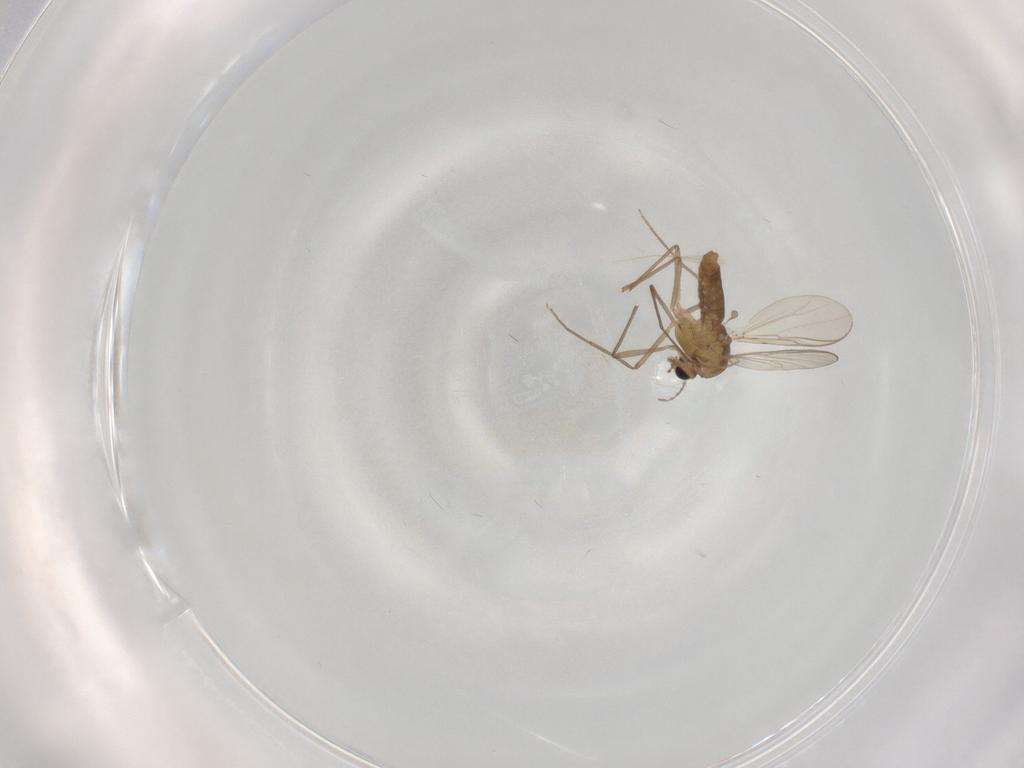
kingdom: Animalia
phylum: Arthropoda
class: Insecta
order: Diptera
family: Chironomidae
